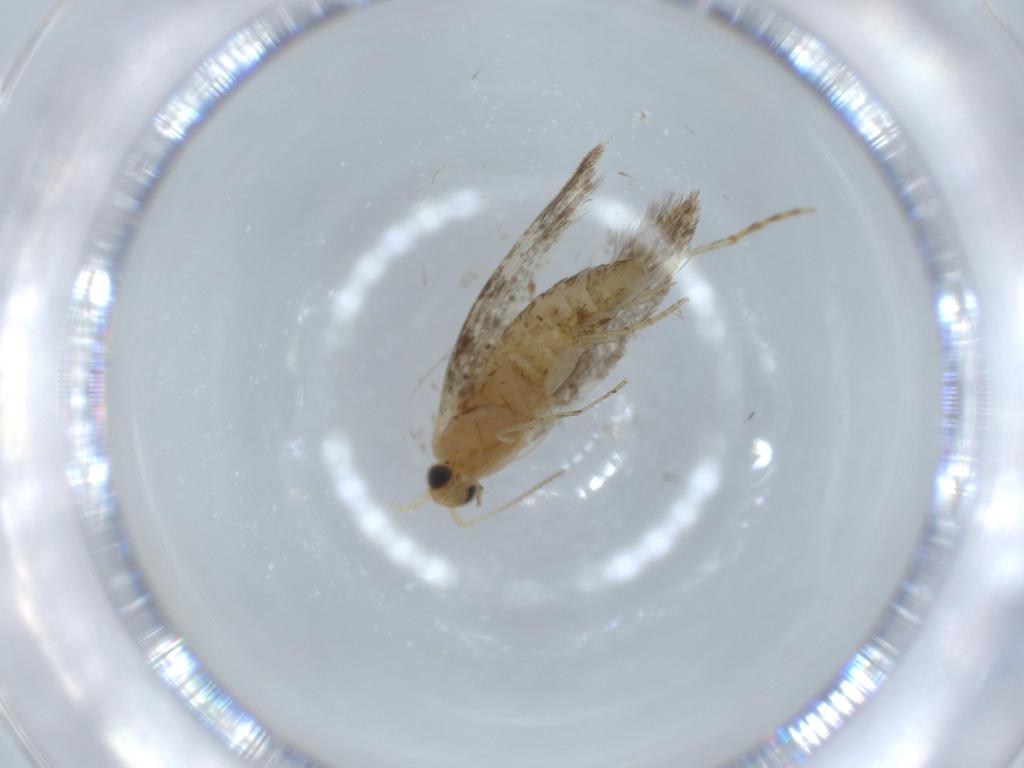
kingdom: Animalia
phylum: Arthropoda
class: Insecta
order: Lepidoptera
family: Argyresthiidae
